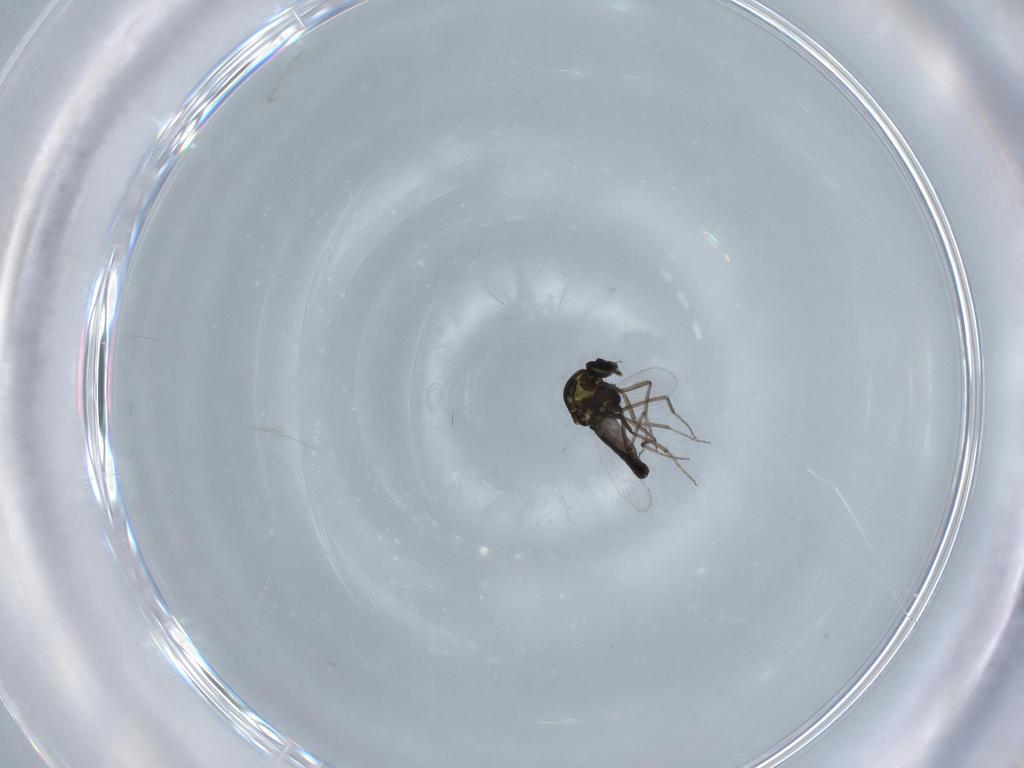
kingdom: Animalia
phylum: Arthropoda
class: Insecta
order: Diptera
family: Ceratopogonidae
